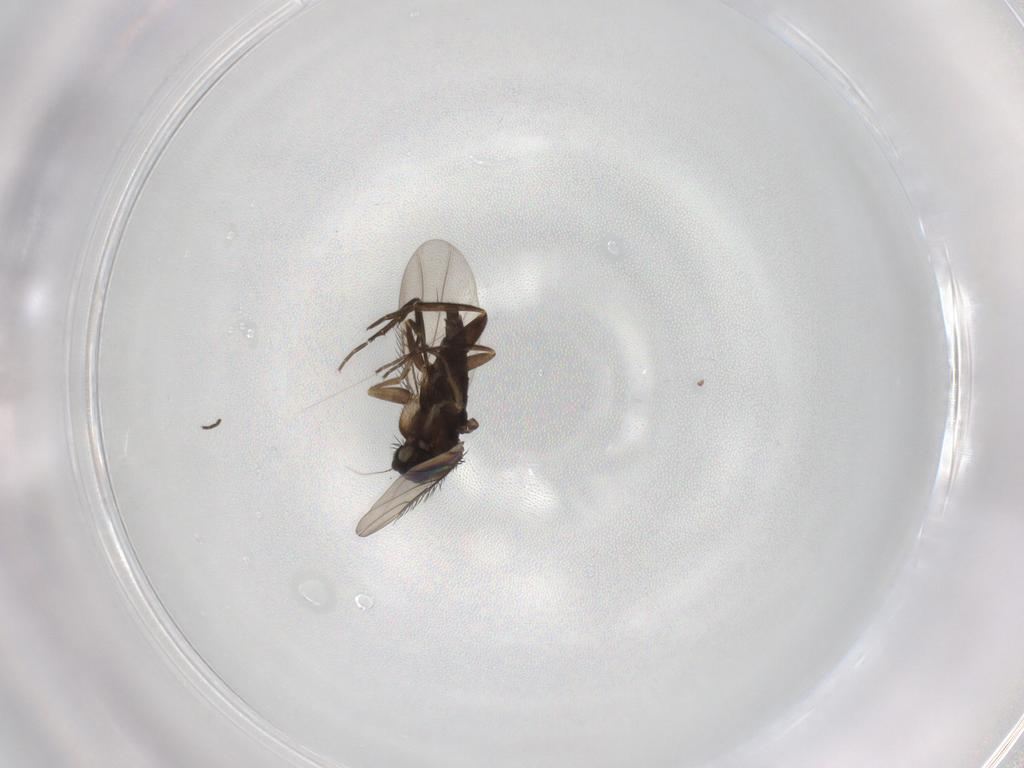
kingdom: Animalia
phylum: Arthropoda
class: Insecta
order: Diptera
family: Phoridae
